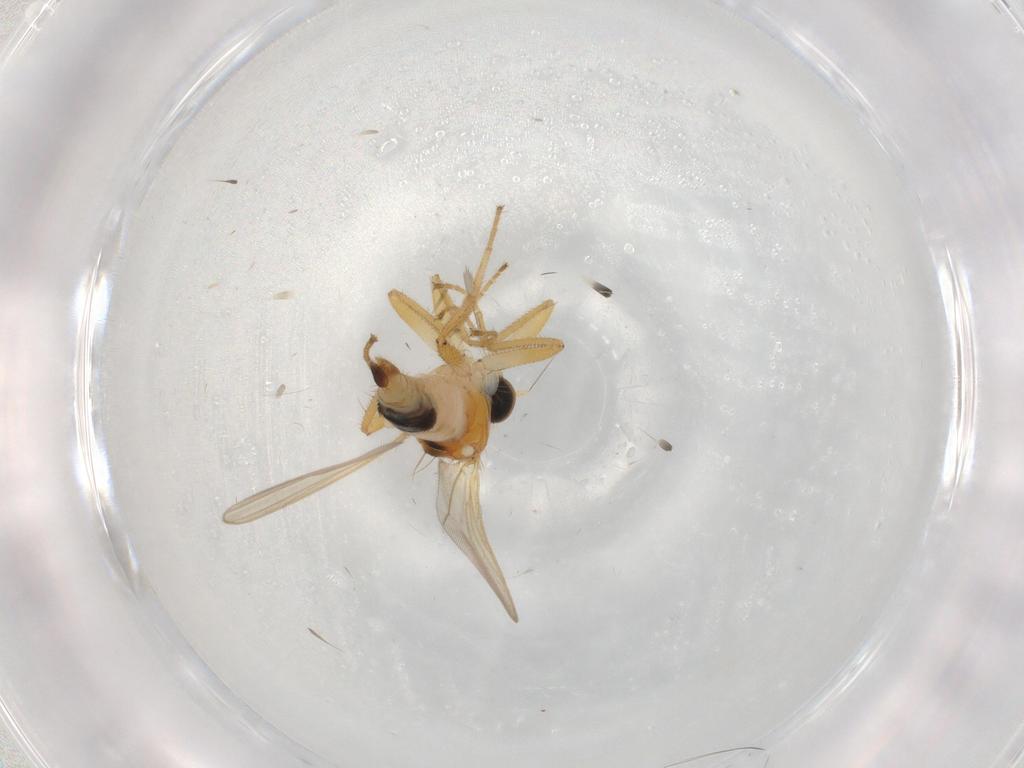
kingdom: Animalia
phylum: Arthropoda
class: Insecta
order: Diptera
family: Hybotidae
